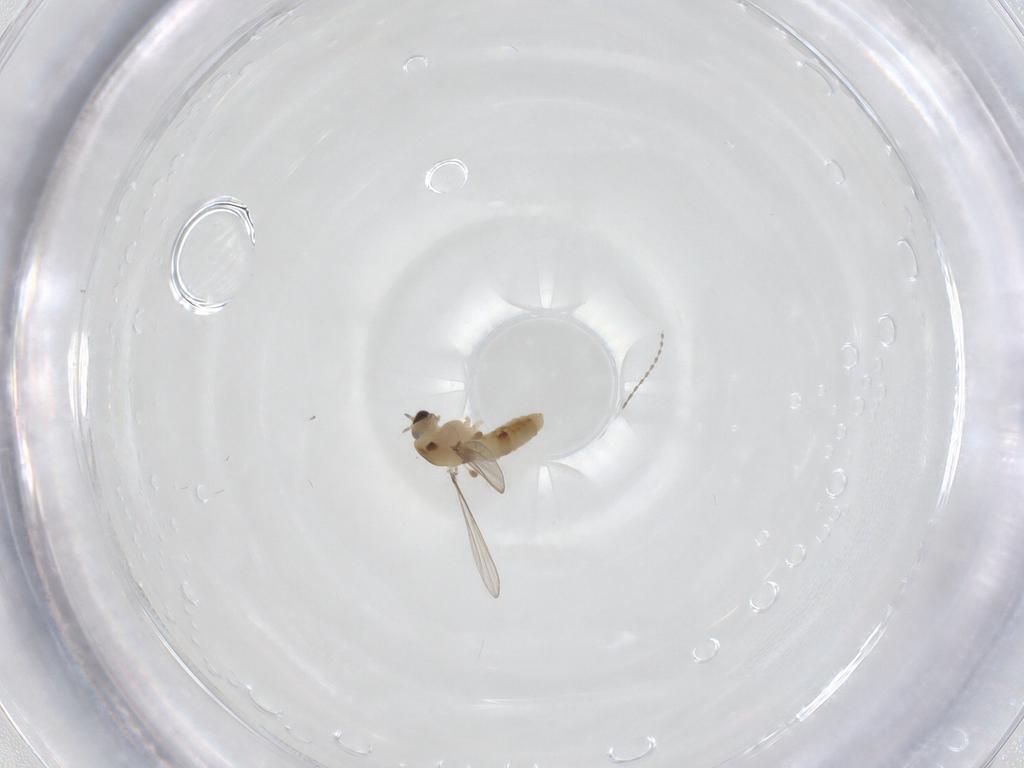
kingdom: Animalia
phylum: Arthropoda
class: Insecta
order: Diptera
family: Chironomidae
